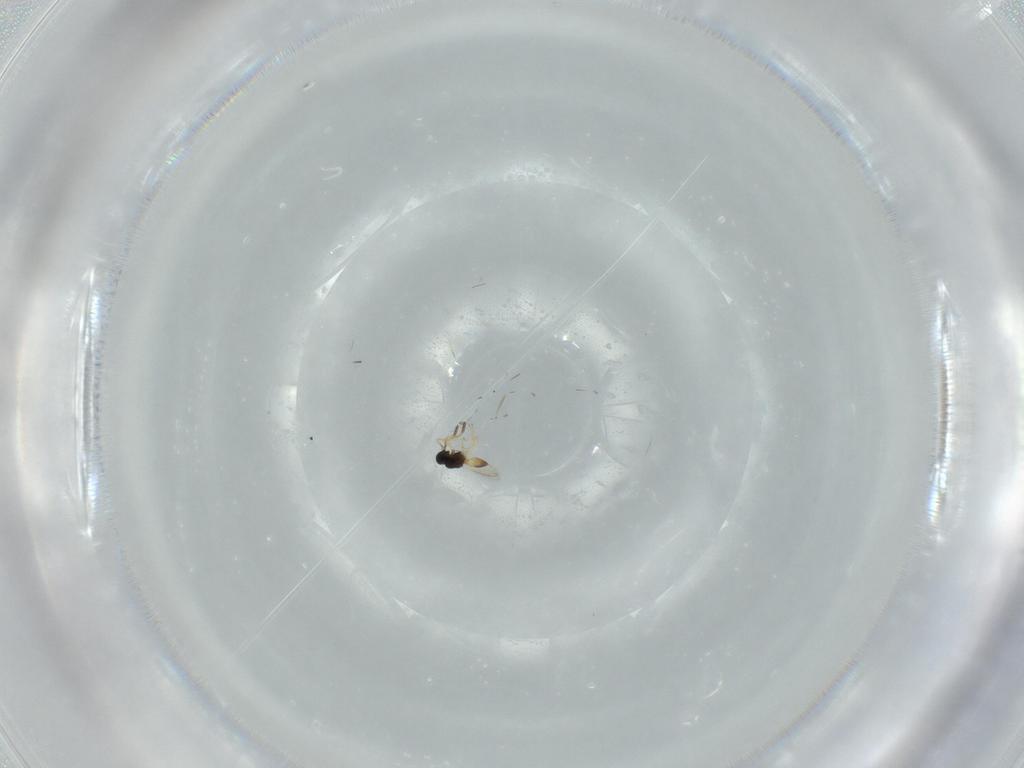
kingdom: Animalia
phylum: Arthropoda
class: Insecta
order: Hymenoptera
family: Scelionidae
